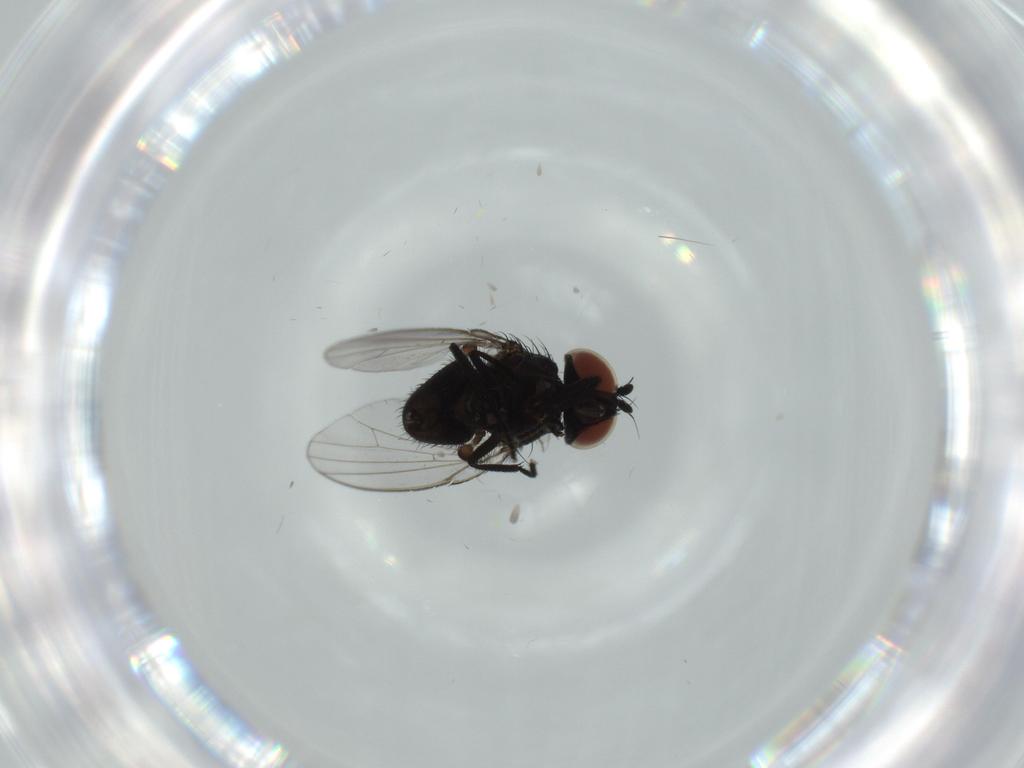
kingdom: Animalia
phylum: Arthropoda
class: Insecta
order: Diptera
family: Milichiidae
